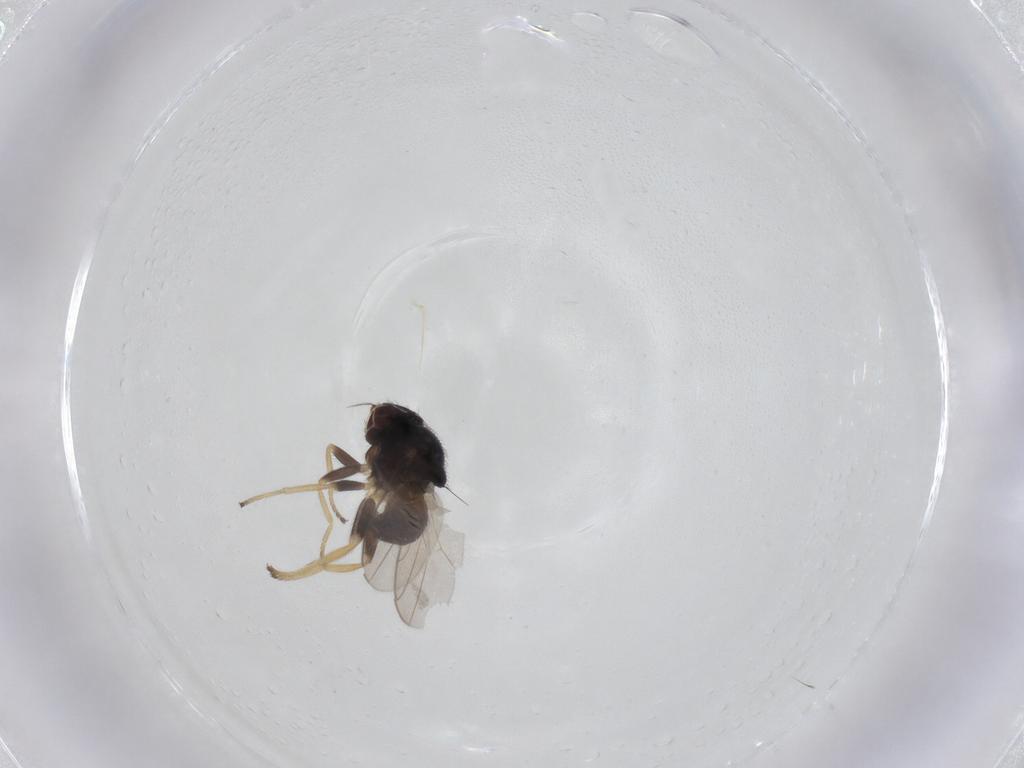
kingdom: Animalia
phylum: Arthropoda
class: Insecta
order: Diptera
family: Chloropidae
